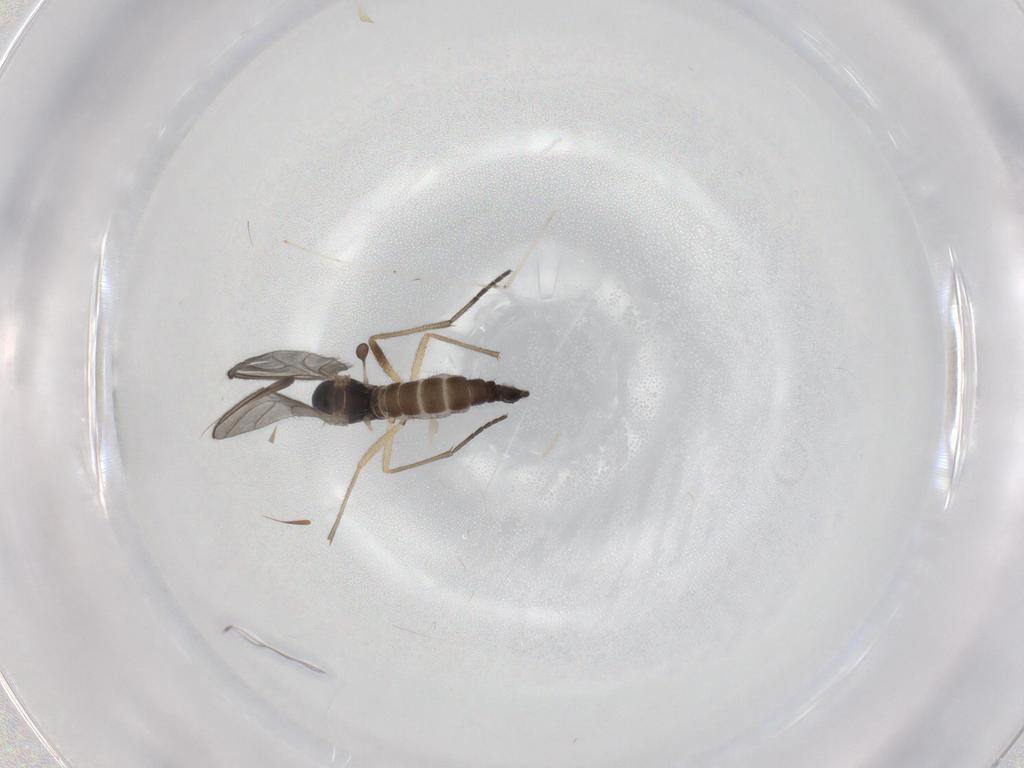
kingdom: Animalia
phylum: Arthropoda
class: Insecta
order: Diptera
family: Sciaridae
